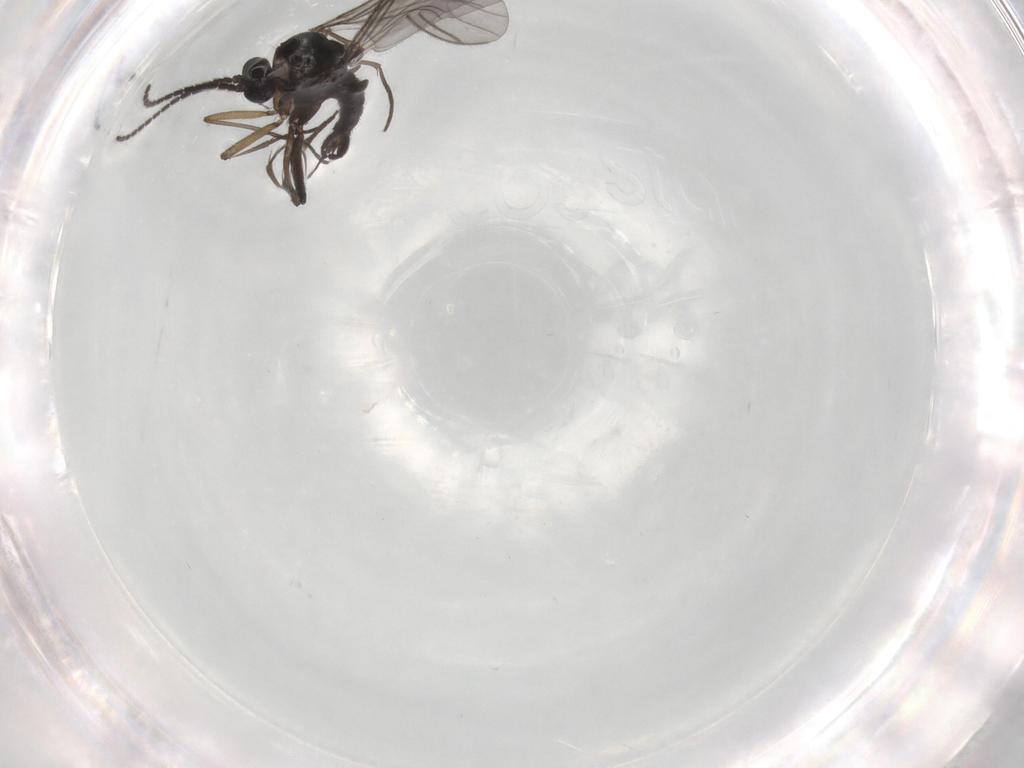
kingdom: Animalia
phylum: Arthropoda
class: Insecta
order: Diptera
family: Sciaridae
